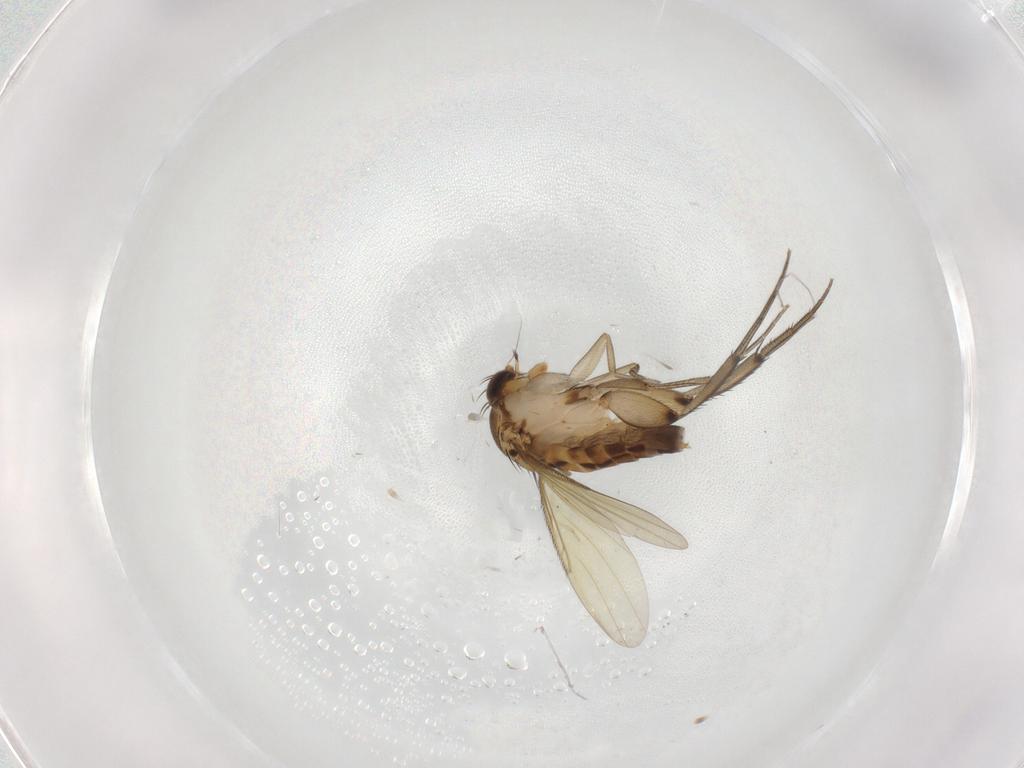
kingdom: Animalia
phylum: Arthropoda
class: Insecta
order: Diptera
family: Phoridae
